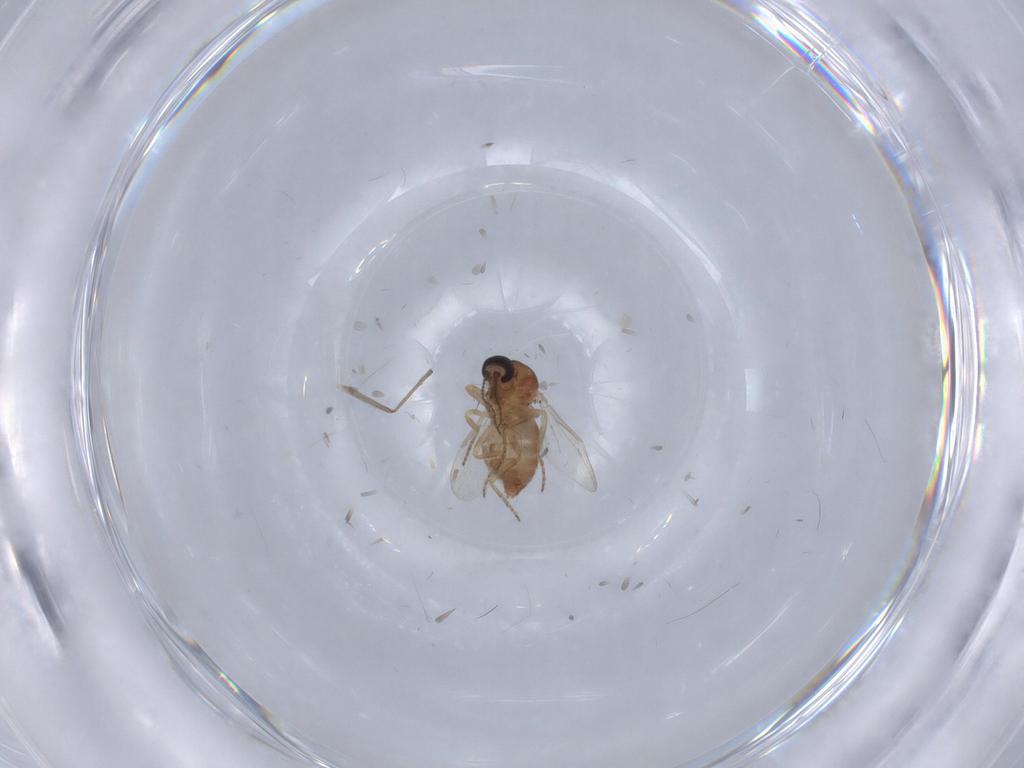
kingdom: Animalia
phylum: Arthropoda
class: Insecta
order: Diptera
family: Ceratopogonidae
